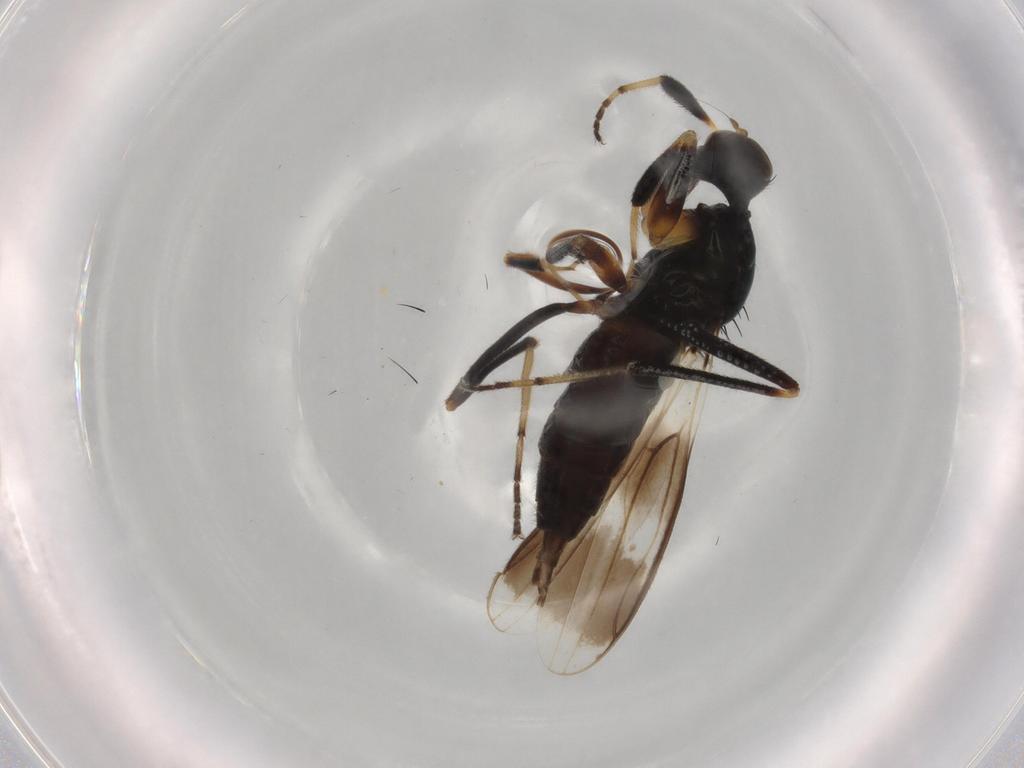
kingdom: Animalia
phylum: Arthropoda
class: Insecta
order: Diptera
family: Hybotidae
